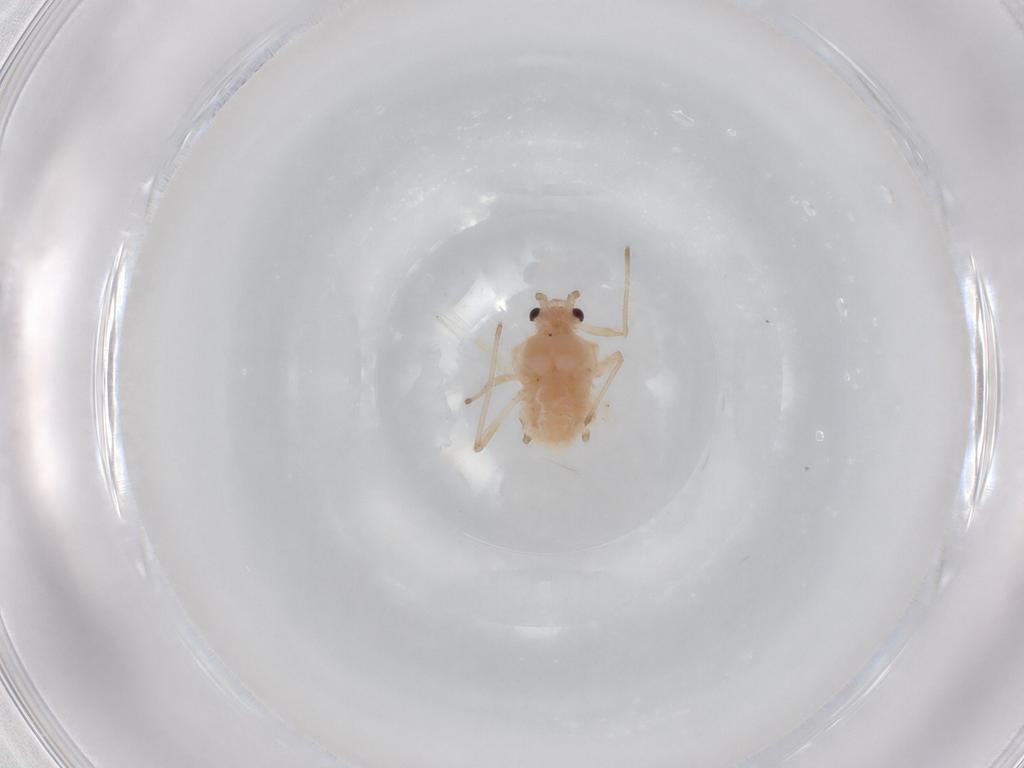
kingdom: Animalia
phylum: Arthropoda
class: Insecta
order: Hemiptera
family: Aphididae
